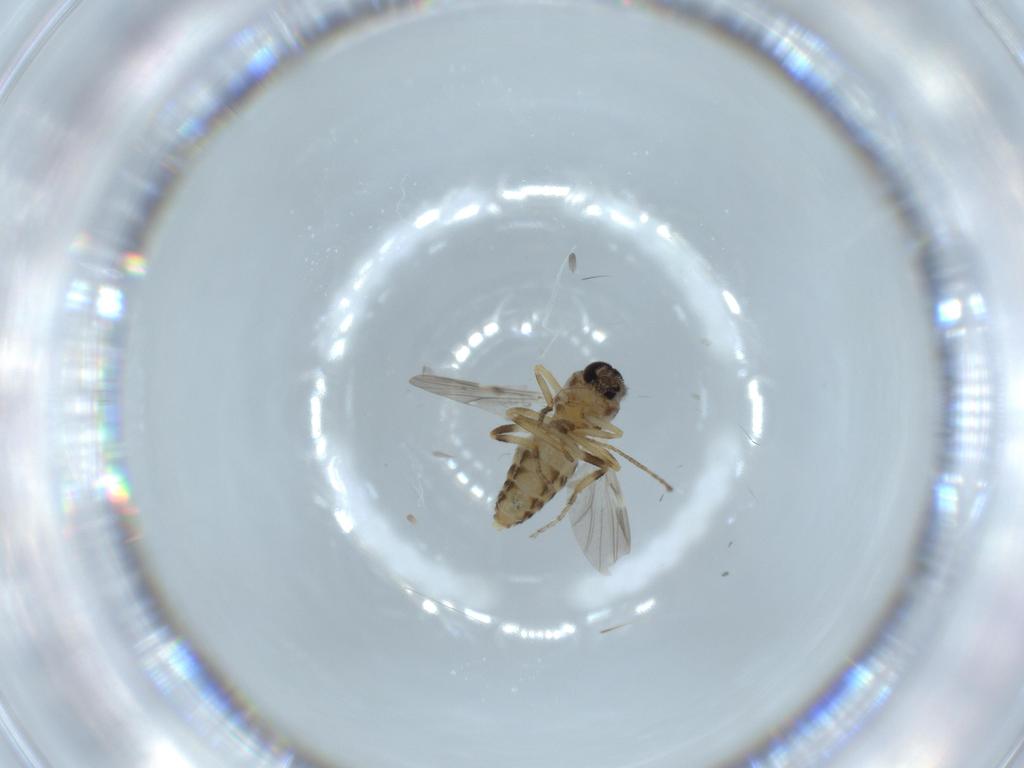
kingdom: Animalia
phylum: Arthropoda
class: Insecta
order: Diptera
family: Ceratopogonidae
